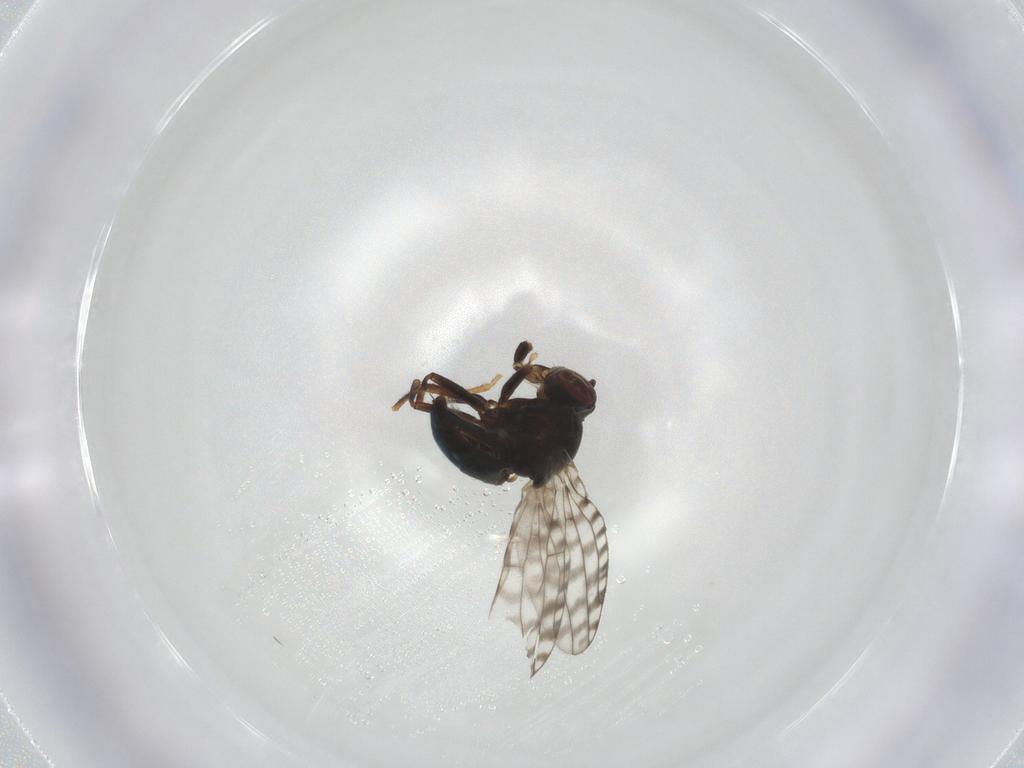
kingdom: Animalia
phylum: Arthropoda
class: Insecta
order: Diptera
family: Ephydridae
